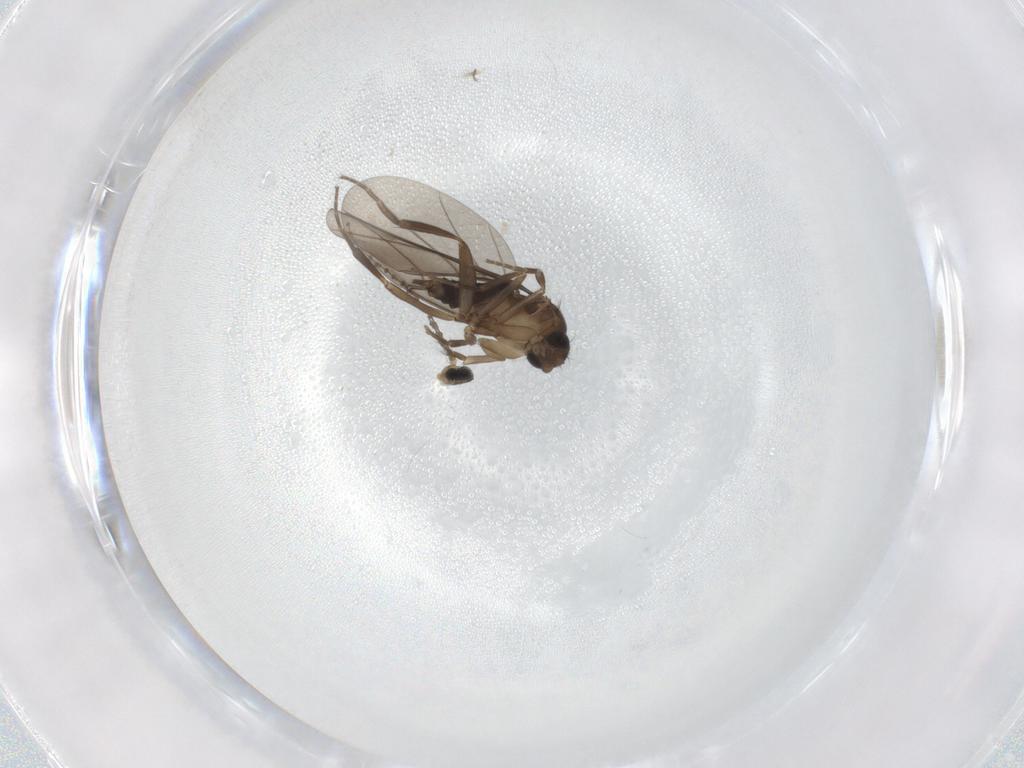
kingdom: Animalia
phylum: Arthropoda
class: Insecta
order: Diptera
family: Phoridae
